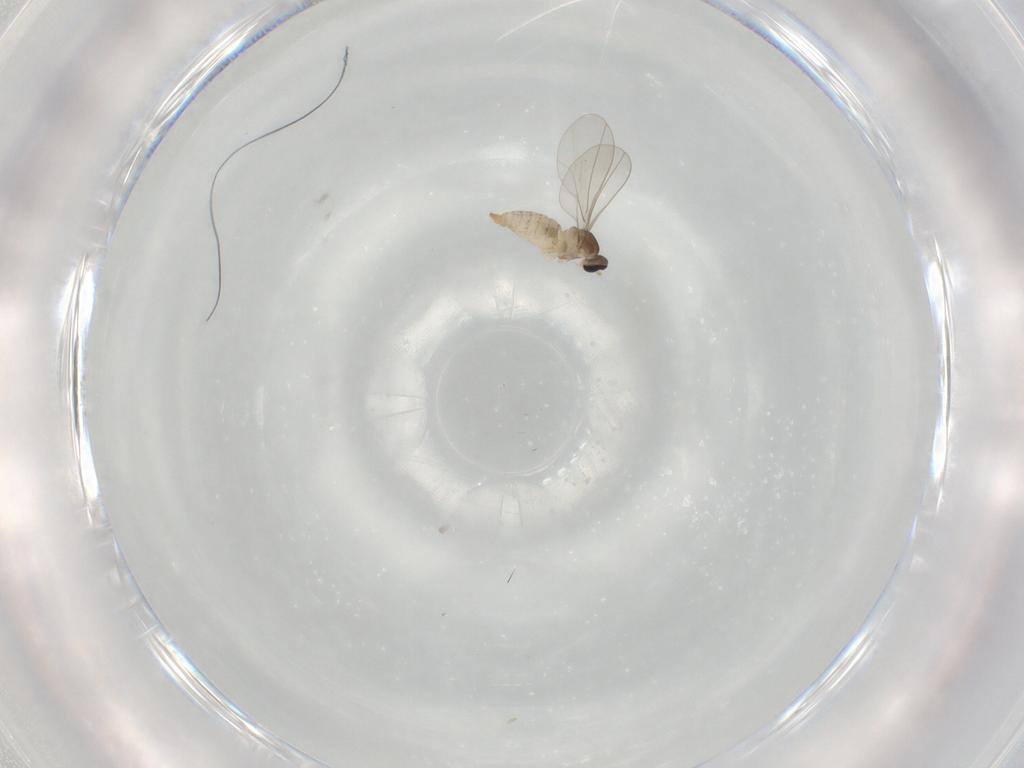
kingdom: Animalia
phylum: Arthropoda
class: Insecta
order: Diptera
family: Cecidomyiidae
